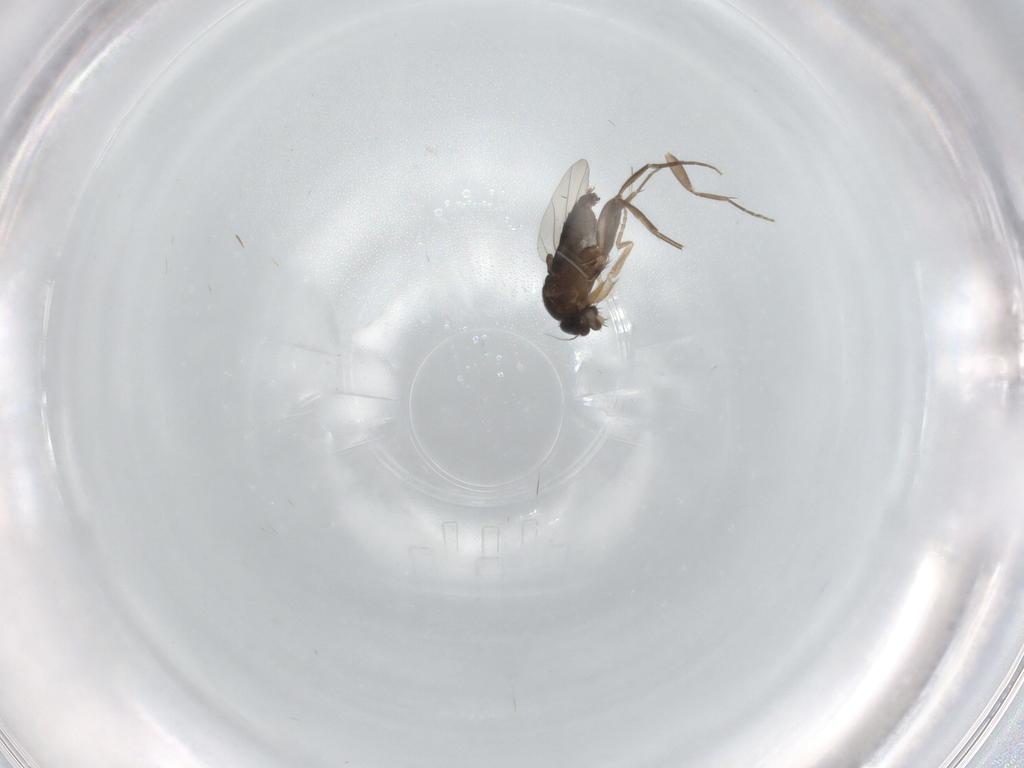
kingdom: Animalia
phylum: Arthropoda
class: Insecta
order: Diptera
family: Phoridae
